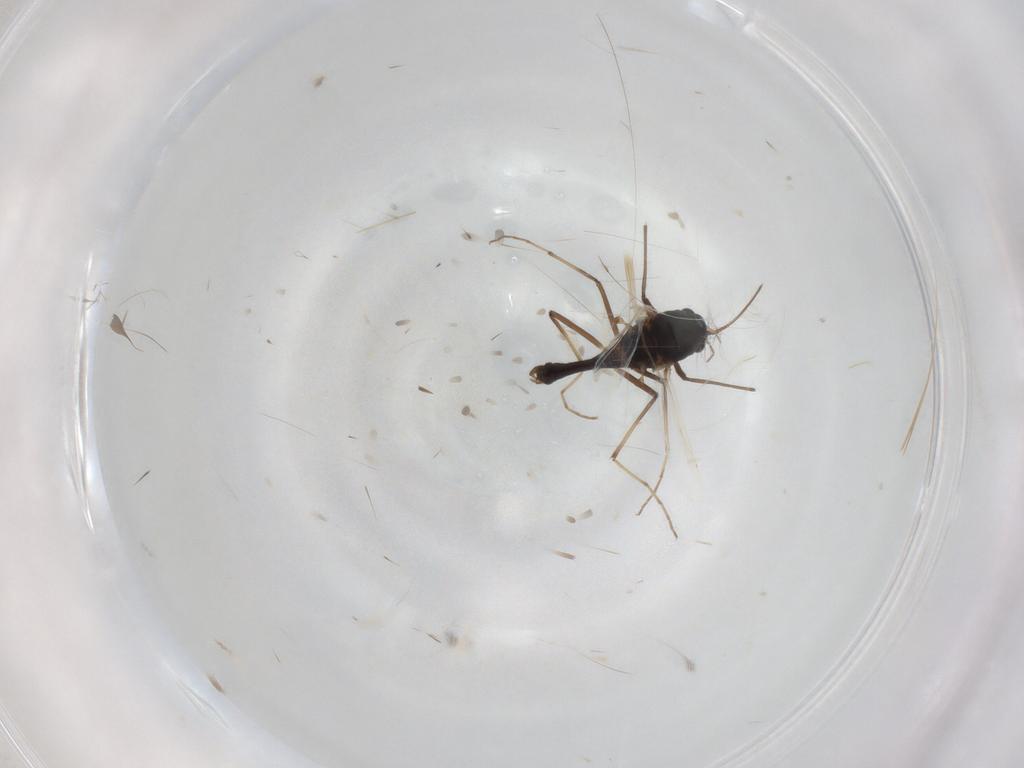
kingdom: Animalia
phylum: Arthropoda
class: Insecta
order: Diptera
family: Chironomidae
